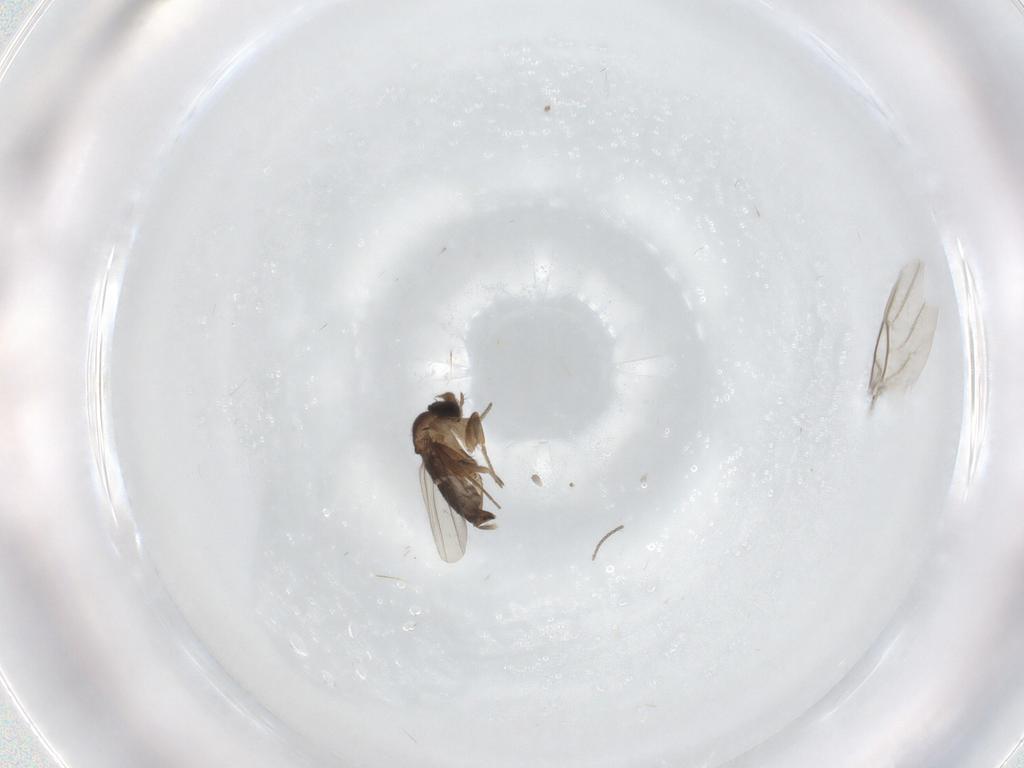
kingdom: Animalia
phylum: Arthropoda
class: Insecta
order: Diptera
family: Phoridae
